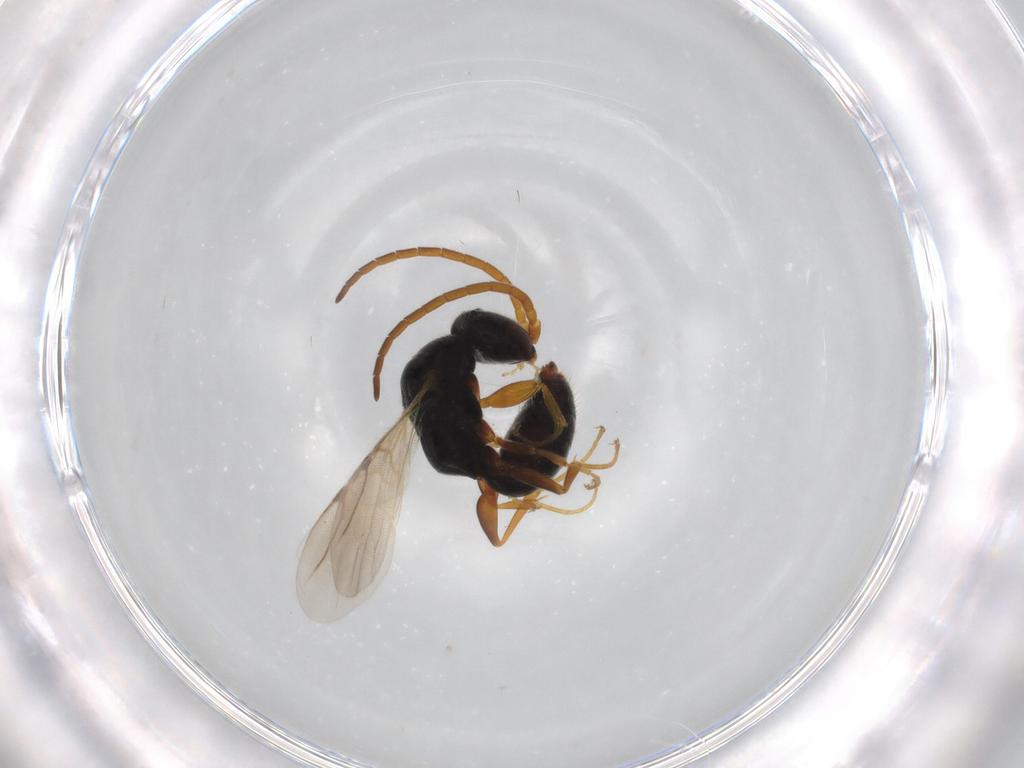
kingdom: Animalia
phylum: Arthropoda
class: Insecta
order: Hymenoptera
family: Bethylidae
